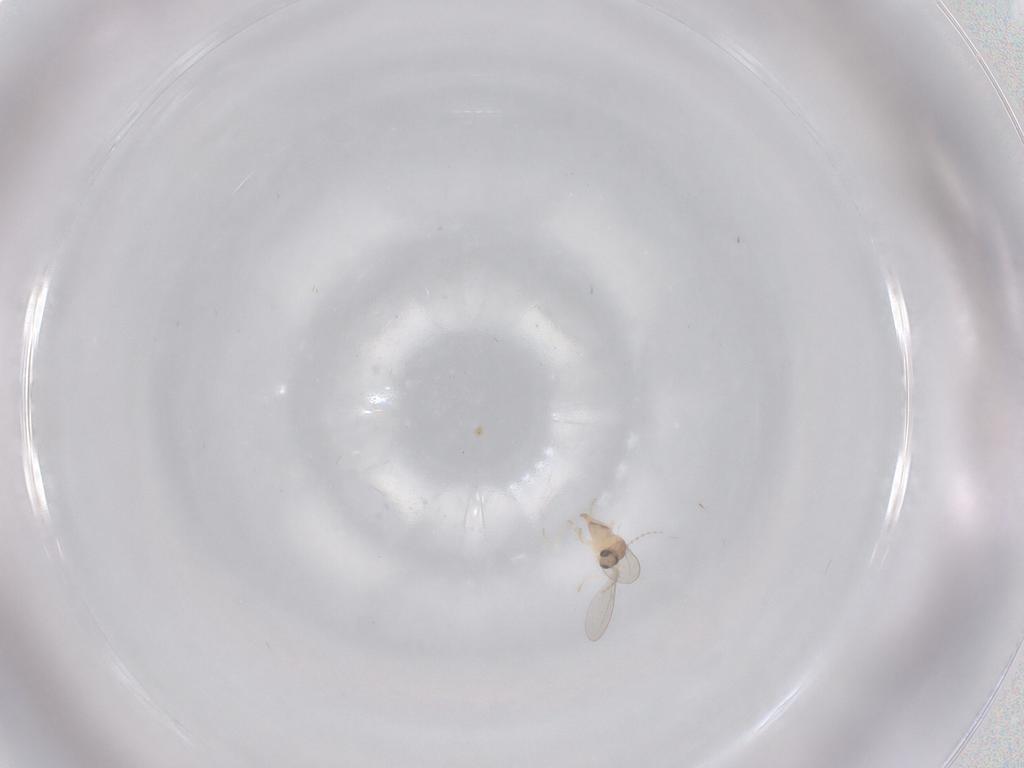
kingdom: Animalia
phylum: Arthropoda
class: Insecta
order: Diptera
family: Cecidomyiidae
